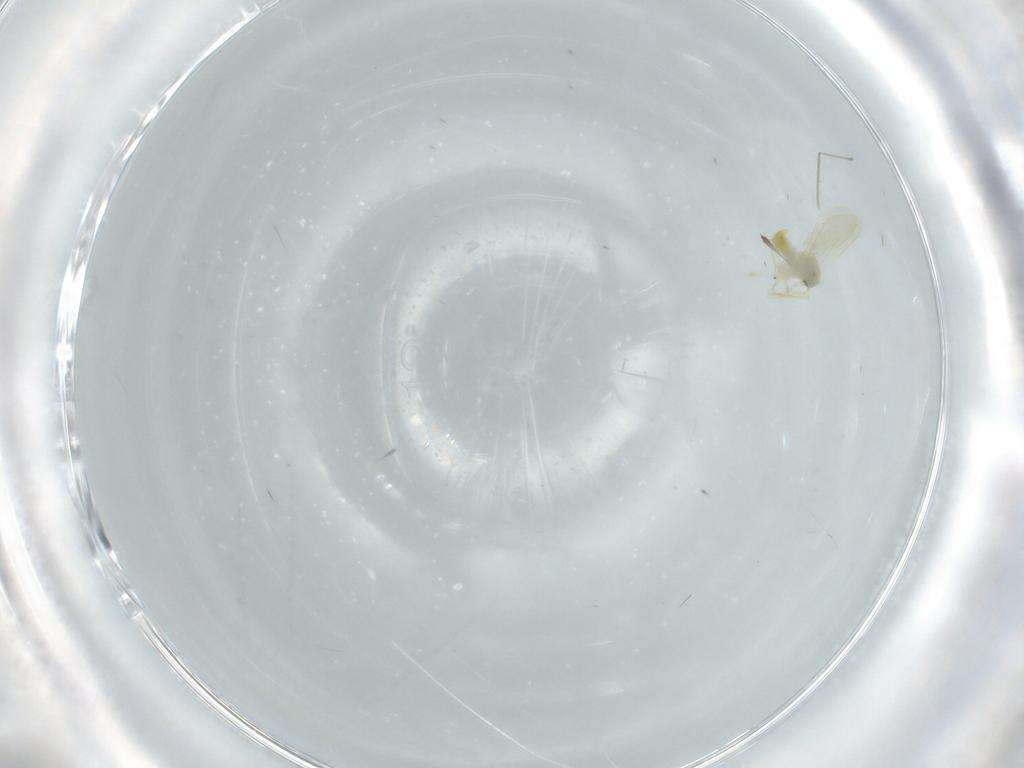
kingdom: Animalia
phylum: Arthropoda
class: Insecta
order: Hemiptera
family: Aleyrodidae
